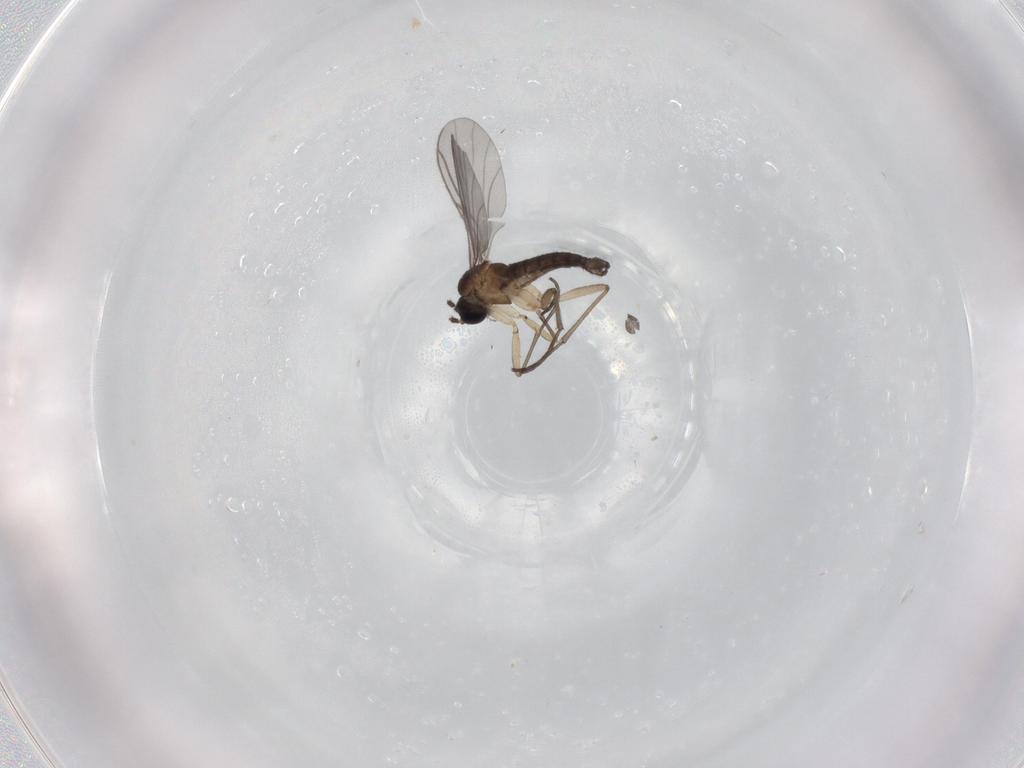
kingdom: Animalia
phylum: Arthropoda
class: Insecta
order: Diptera
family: Sciaridae
